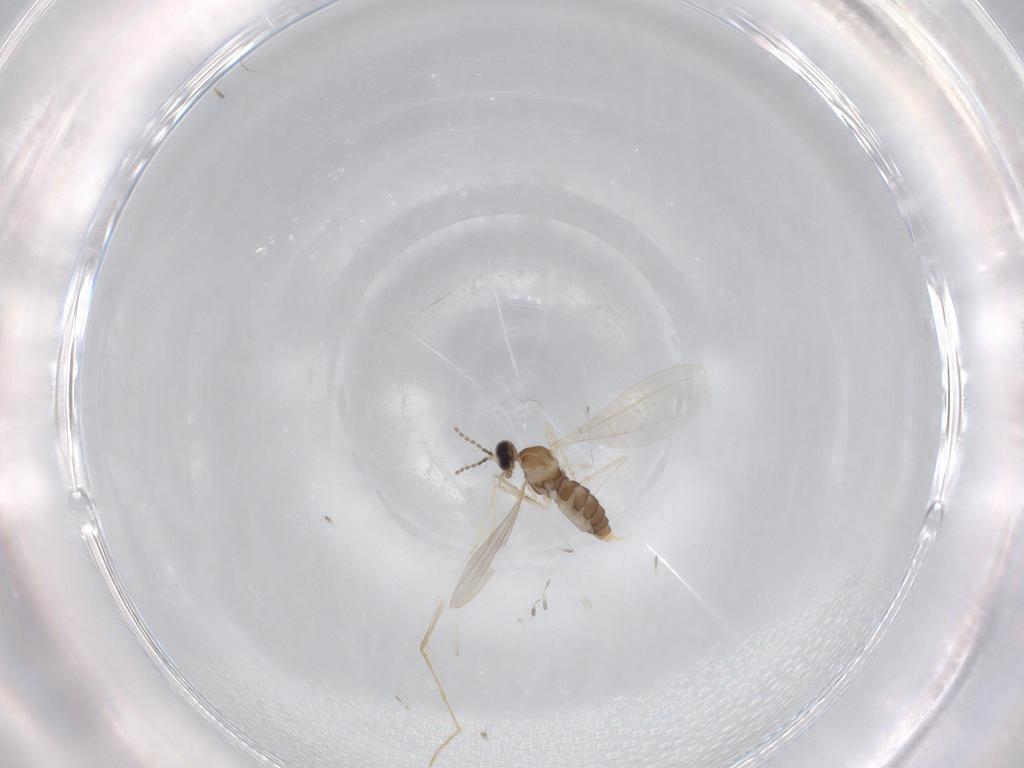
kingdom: Animalia
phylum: Arthropoda
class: Insecta
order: Diptera
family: Cecidomyiidae
